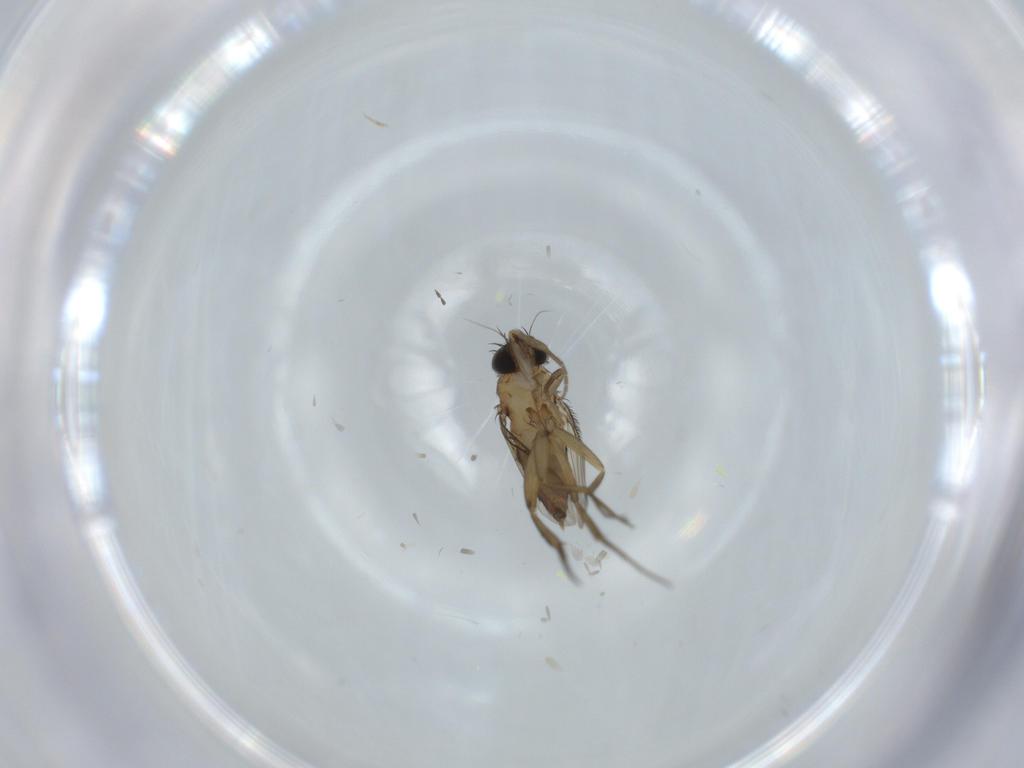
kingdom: Animalia
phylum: Arthropoda
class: Insecta
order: Diptera
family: Phoridae
